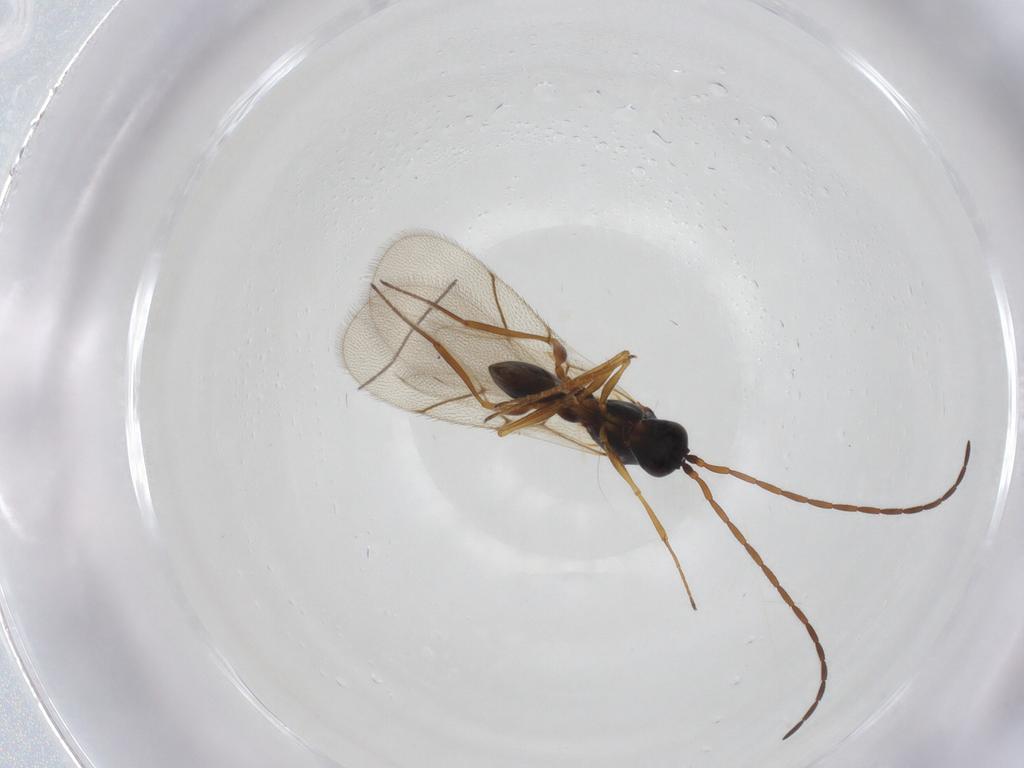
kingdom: Animalia
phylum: Arthropoda
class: Insecta
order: Hymenoptera
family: Figitidae
